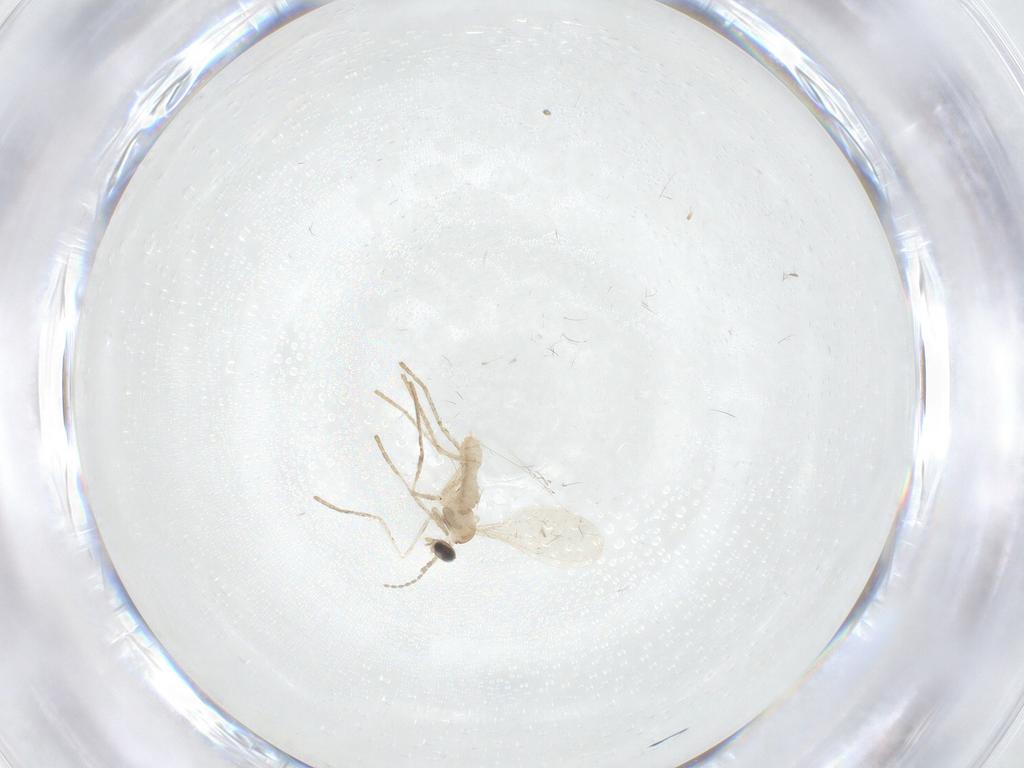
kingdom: Animalia
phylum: Arthropoda
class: Insecta
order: Diptera
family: Cecidomyiidae
